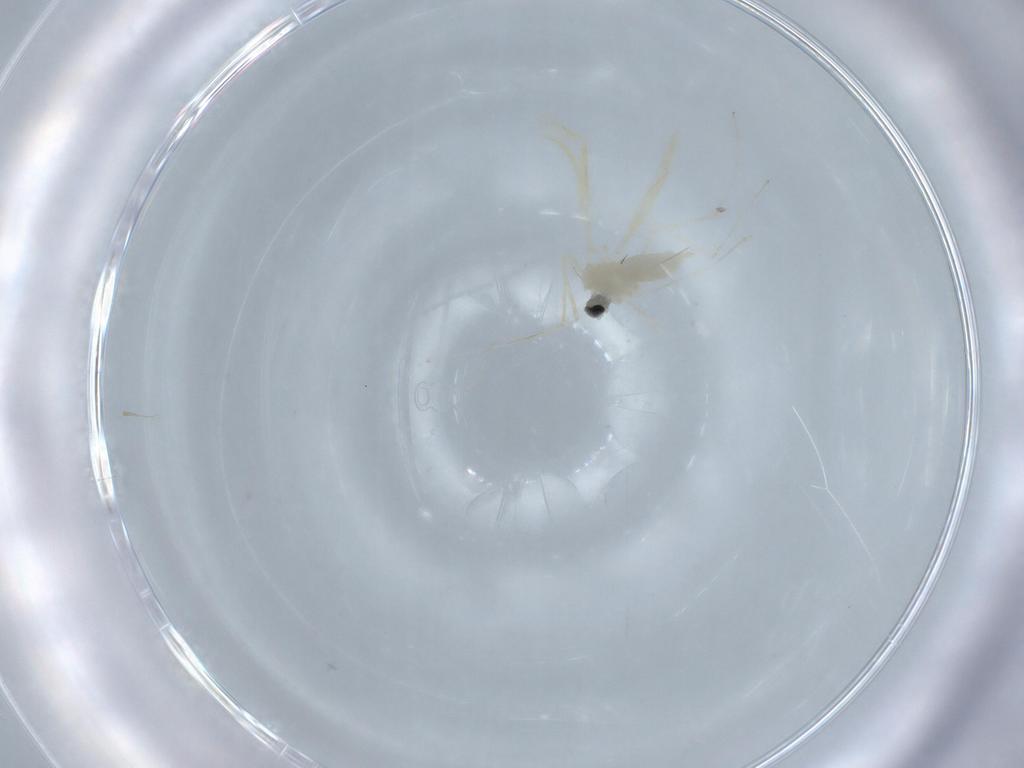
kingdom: Animalia
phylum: Arthropoda
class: Insecta
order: Diptera
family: Cecidomyiidae
